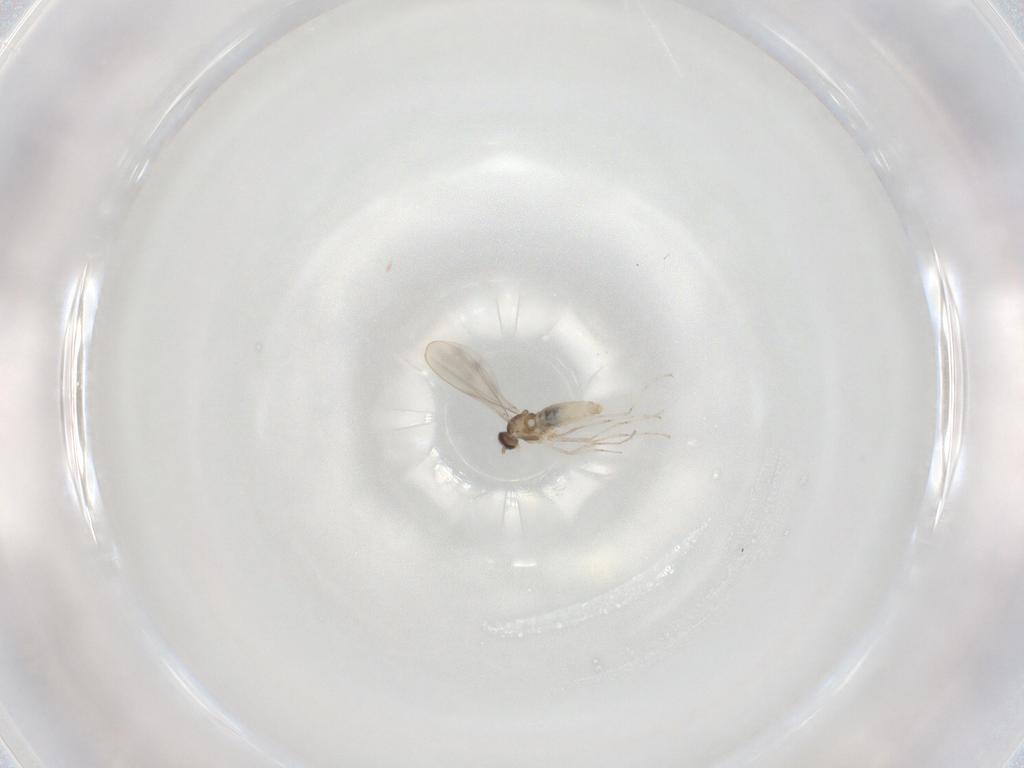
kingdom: Animalia
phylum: Arthropoda
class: Insecta
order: Diptera
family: Cecidomyiidae
